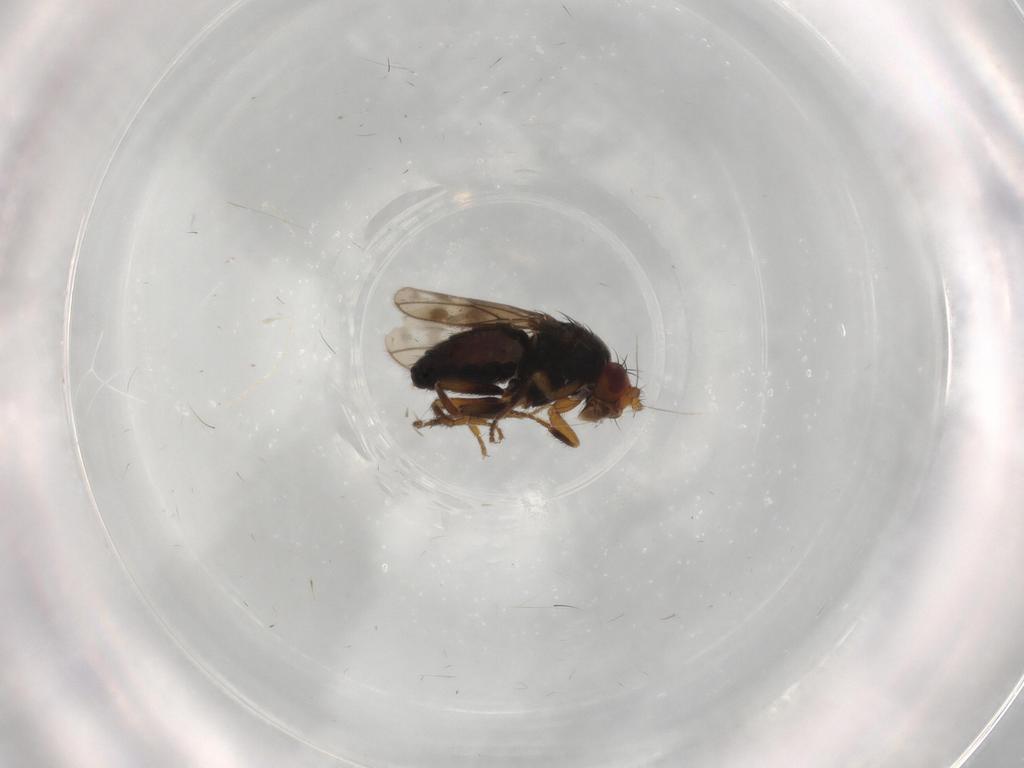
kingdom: Animalia
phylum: Arthropoda
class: Insecta
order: Diptera
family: Sphaeroceridae
